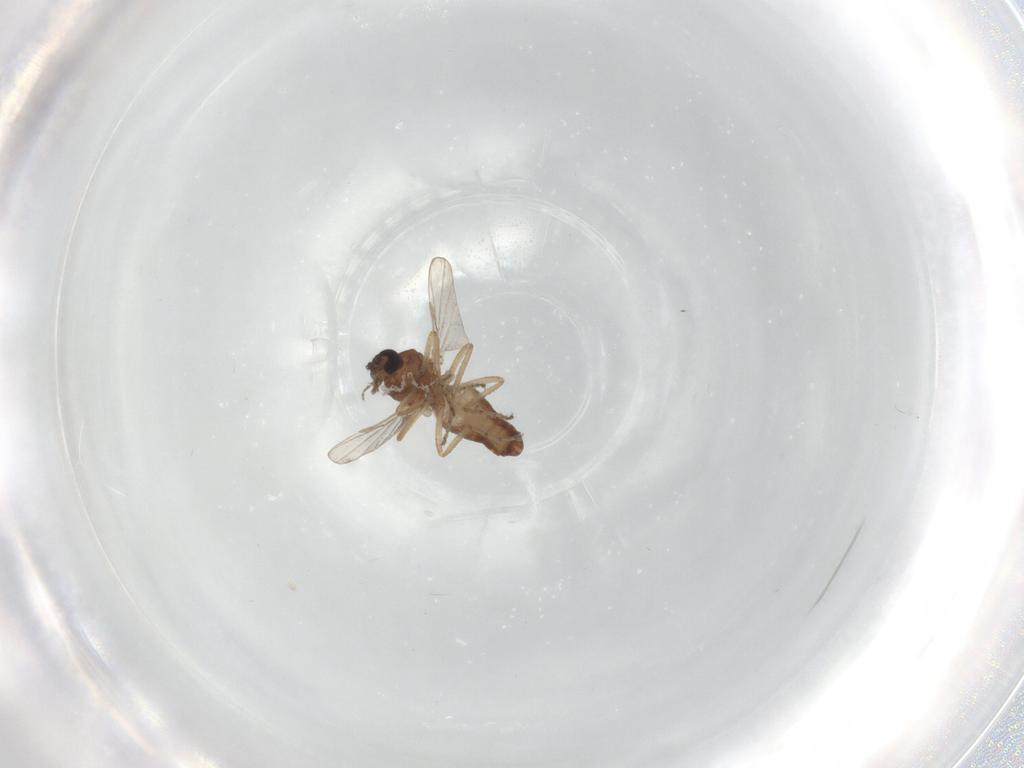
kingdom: Animalia
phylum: Arthropoda
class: Insecta
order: Diptera
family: Ceratopogonidae
